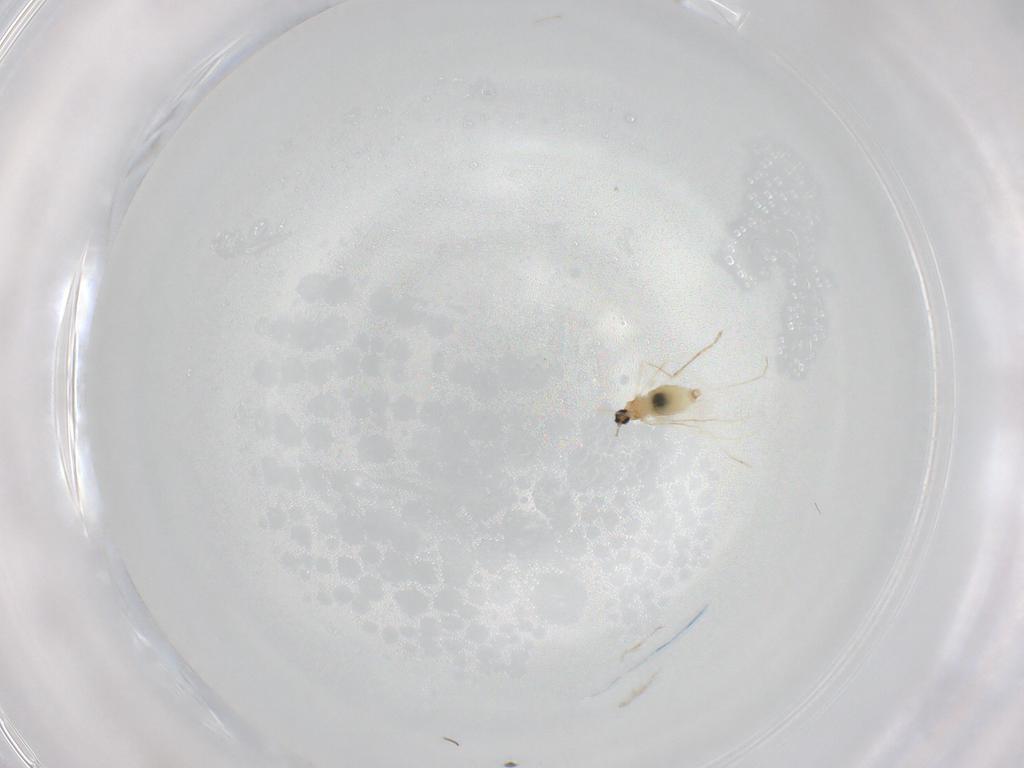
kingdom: Animalia
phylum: Arthropoda
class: Insecta
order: Diptera
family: Chironomidae
